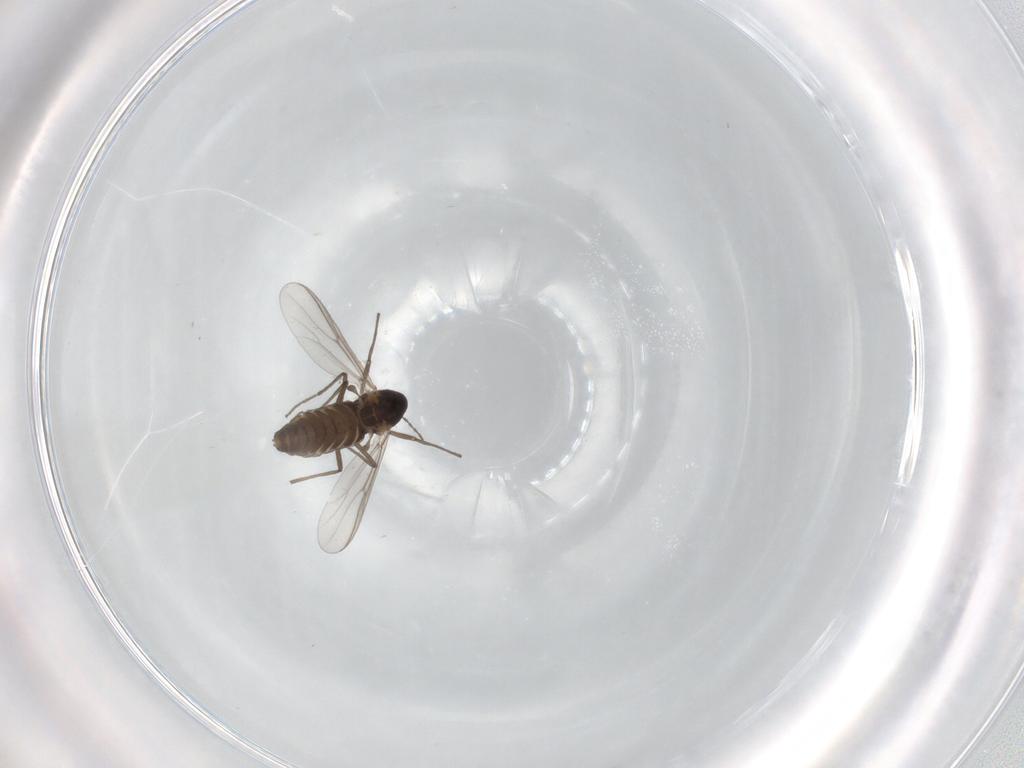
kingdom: Animalia
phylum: Arthropoda
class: Insecta
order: Diptera
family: Chironomidae
